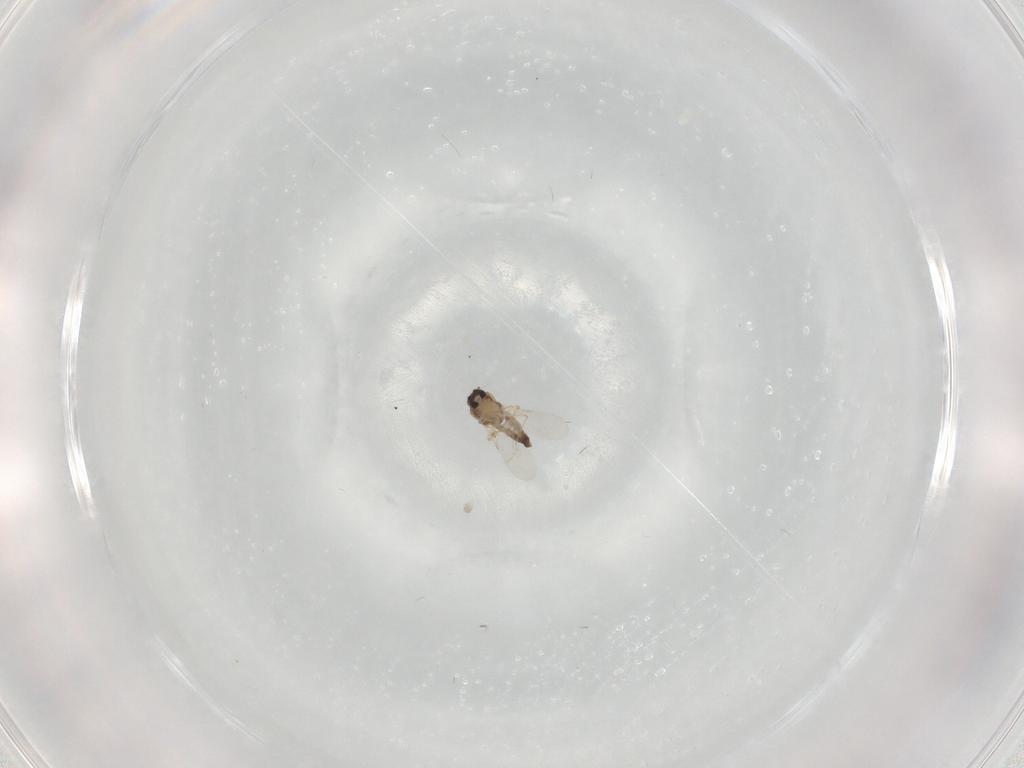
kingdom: Animalia
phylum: Arthropoda
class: Insecta
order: Diptera
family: Ceratopogonidae
